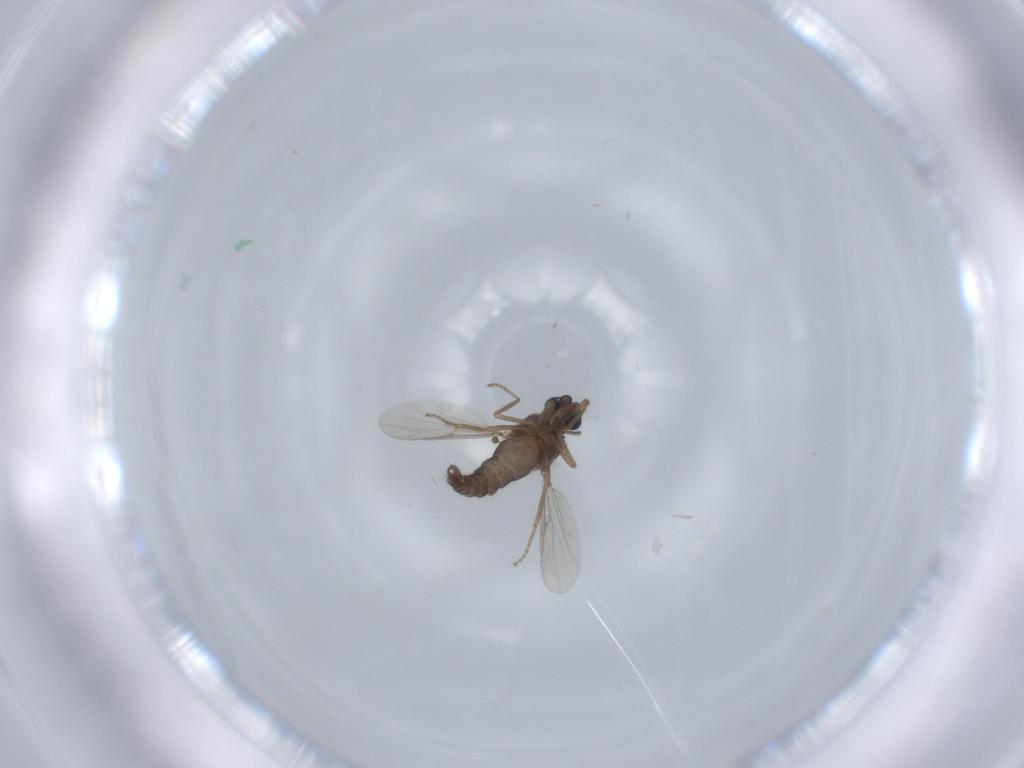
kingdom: Animalia
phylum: Arthropoda
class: Insecta
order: Diptera
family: Ceratopogonidae
